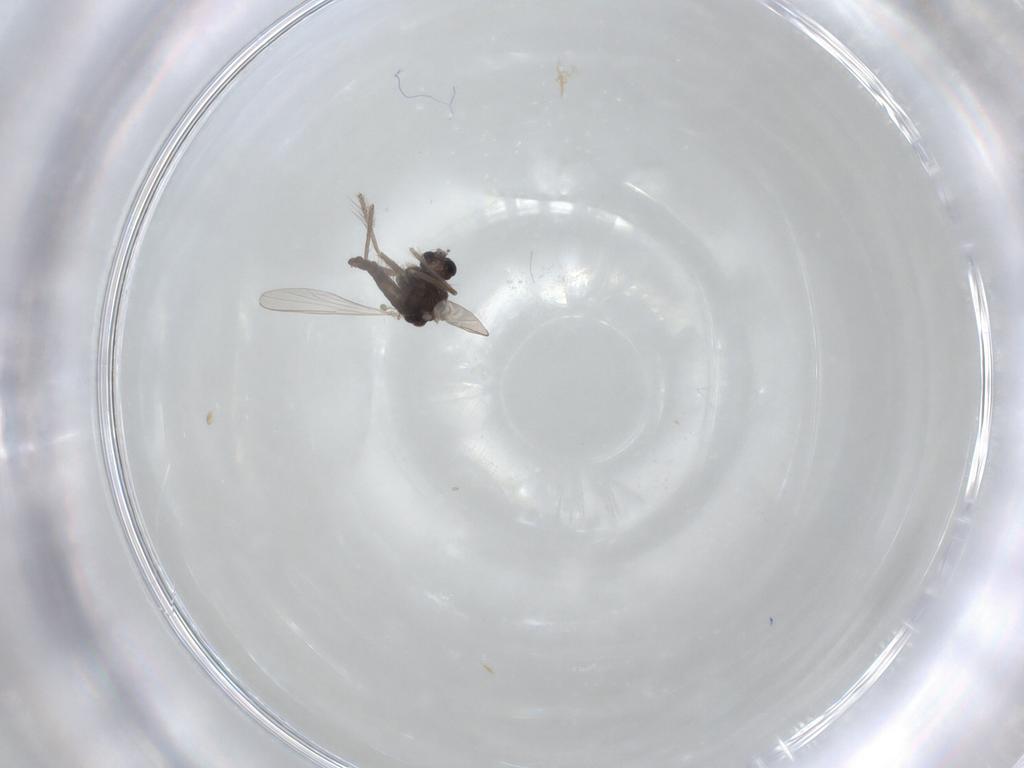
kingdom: Animalia
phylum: Arthropoda
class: Insecta
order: Diptera
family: Chironomidae
